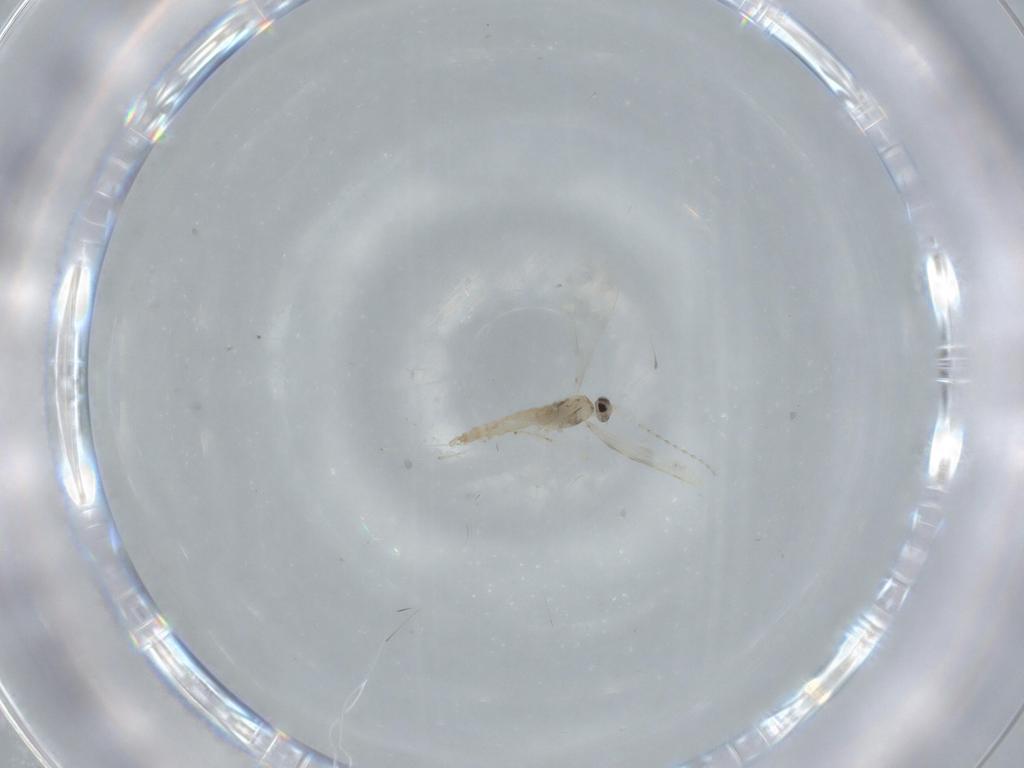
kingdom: Animalia
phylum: Arthropoda
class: Insecta
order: Diptera
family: Cecidomyiidae
